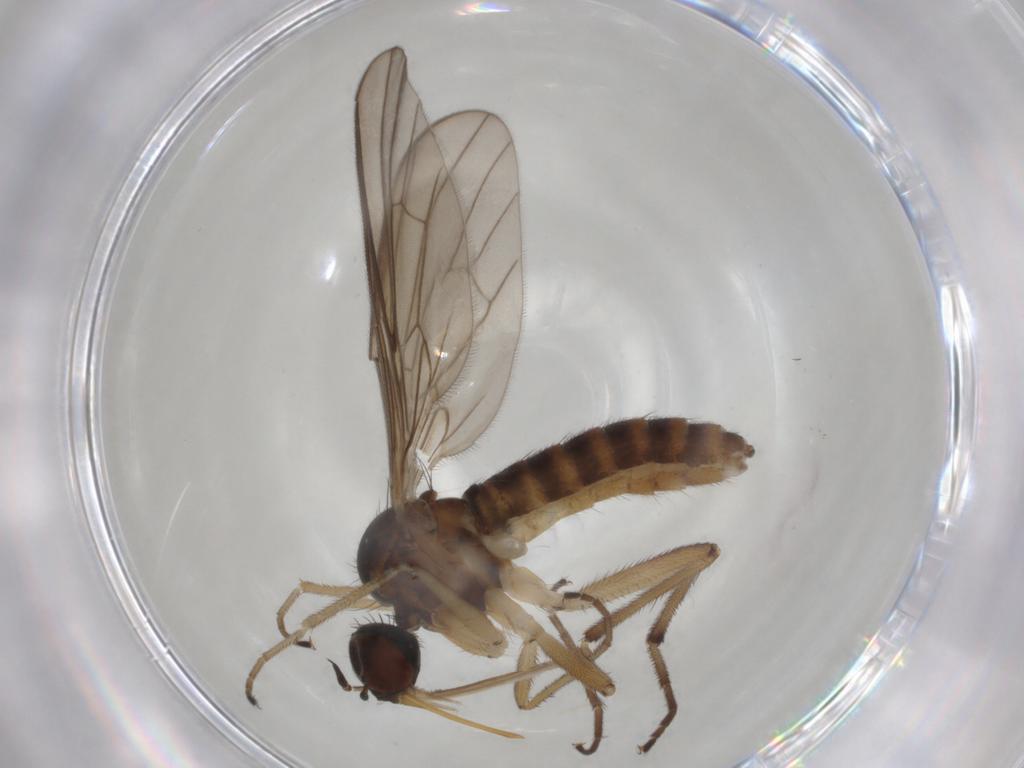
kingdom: Animalia
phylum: Arthropoda
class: Insecta
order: Diptera
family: Empididae
